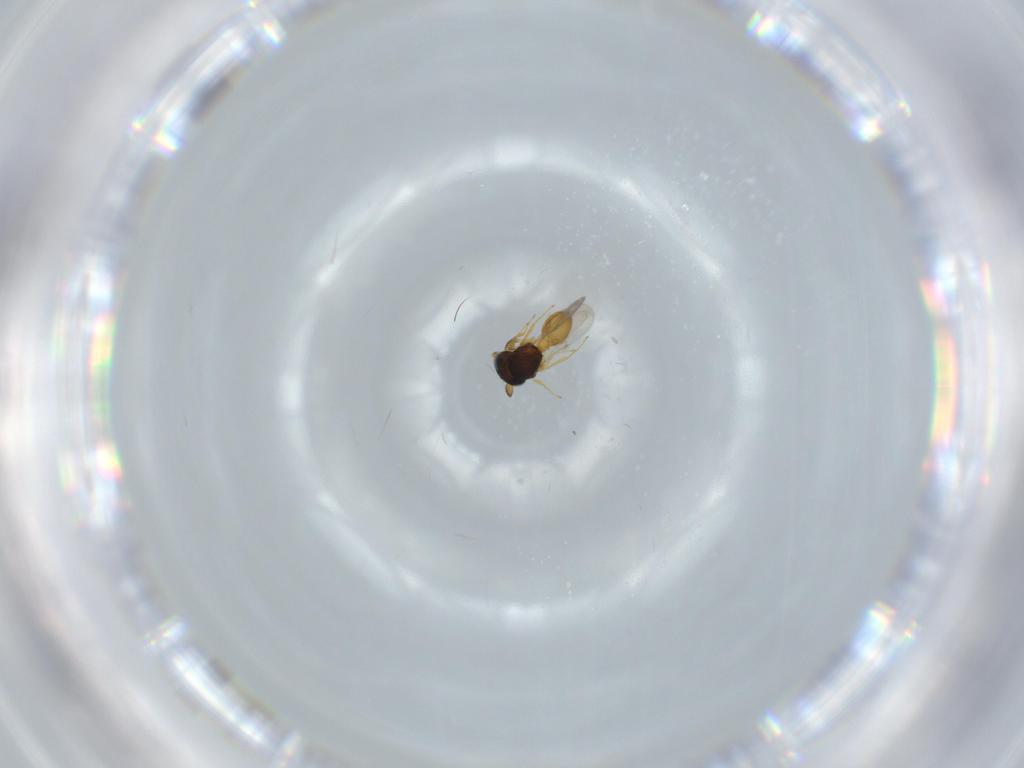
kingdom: Animalia
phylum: Arthropoda
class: Insecta
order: Hymenoptera
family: Scelionidae
